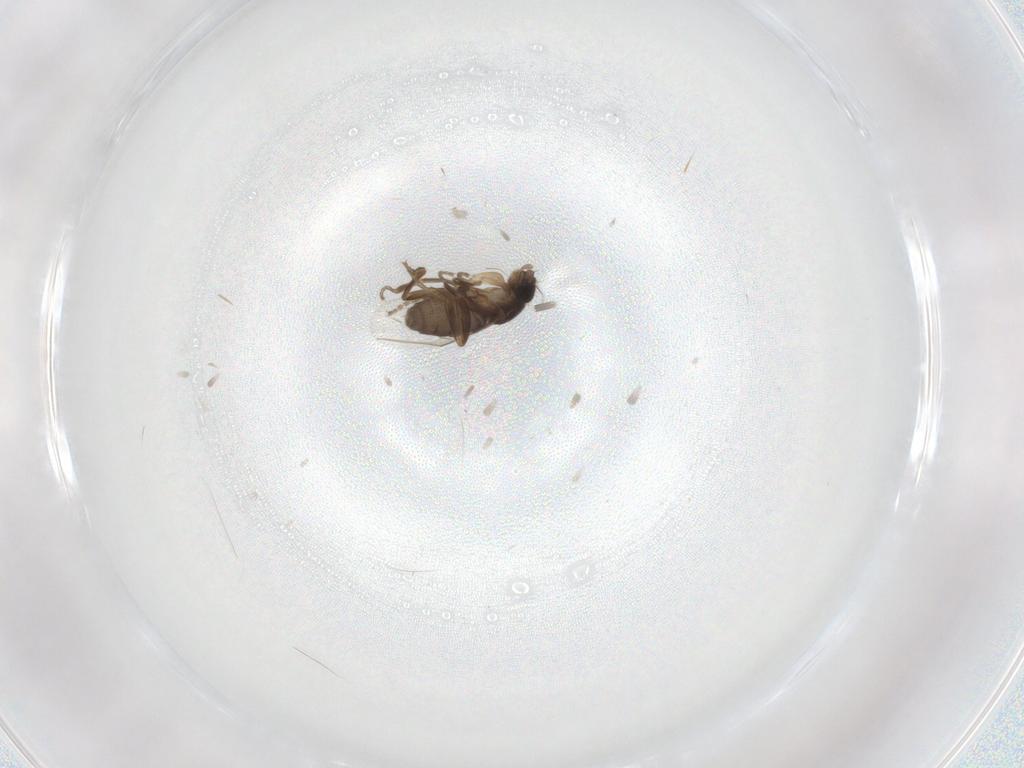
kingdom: Animalia
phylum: Arthropoda
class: Insecta
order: Diptera
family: Phoridae
